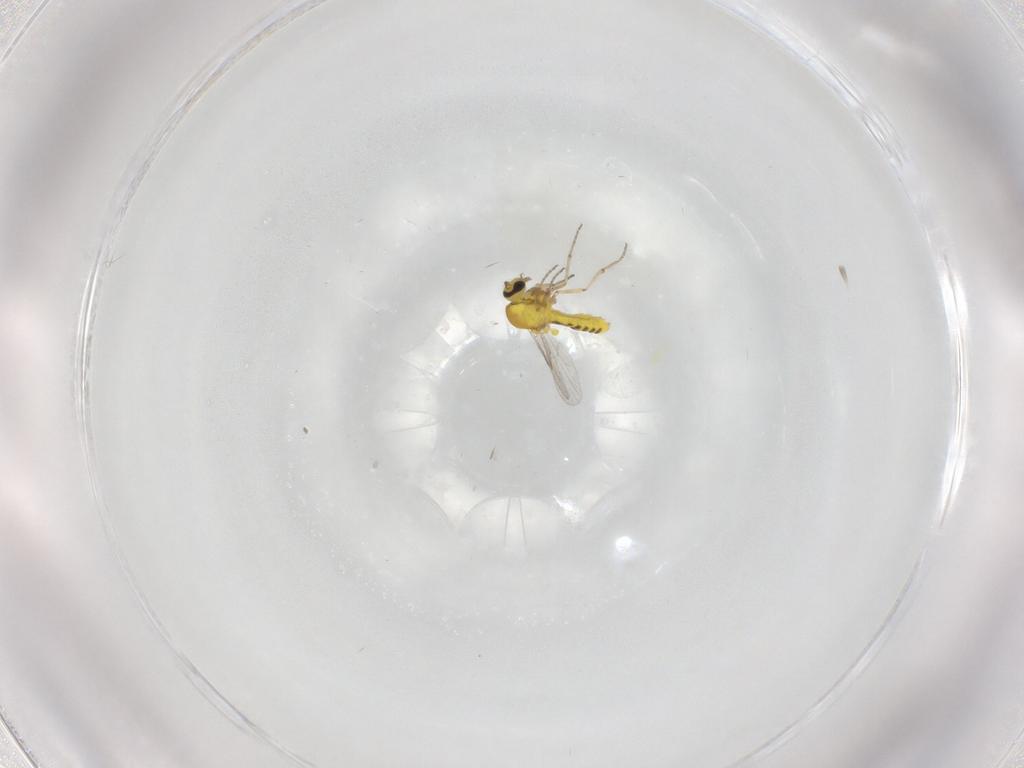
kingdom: Animalia
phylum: Arthropoda
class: Insecta
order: Diptera
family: Ceratopogonidae
